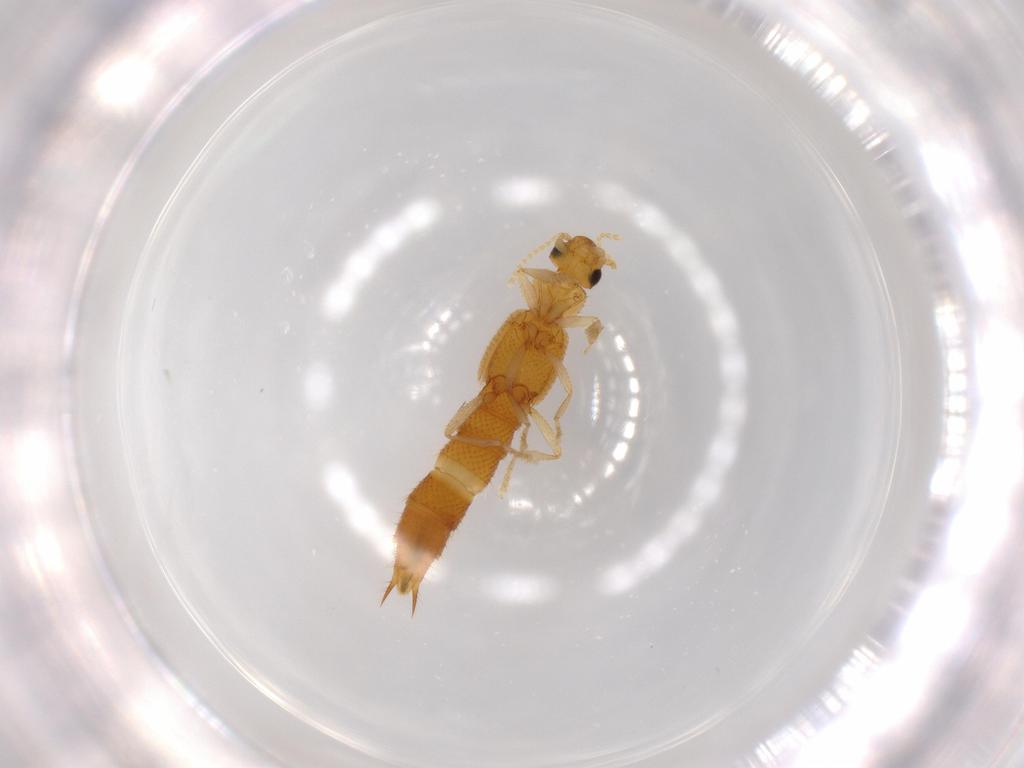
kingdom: Animalia
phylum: Arthropoda
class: Insecta
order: Coleoptera
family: Staphylinidae
